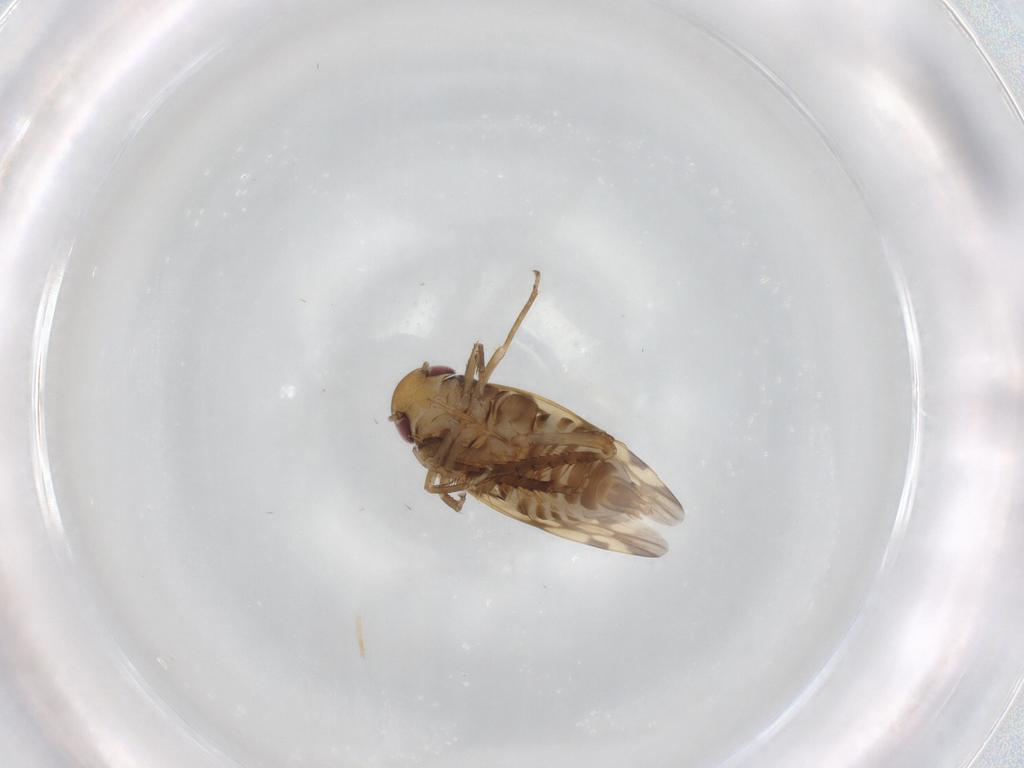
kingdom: Animalia
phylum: Arthropoda
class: Insecta
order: Hemiptera
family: Cicadellidae
